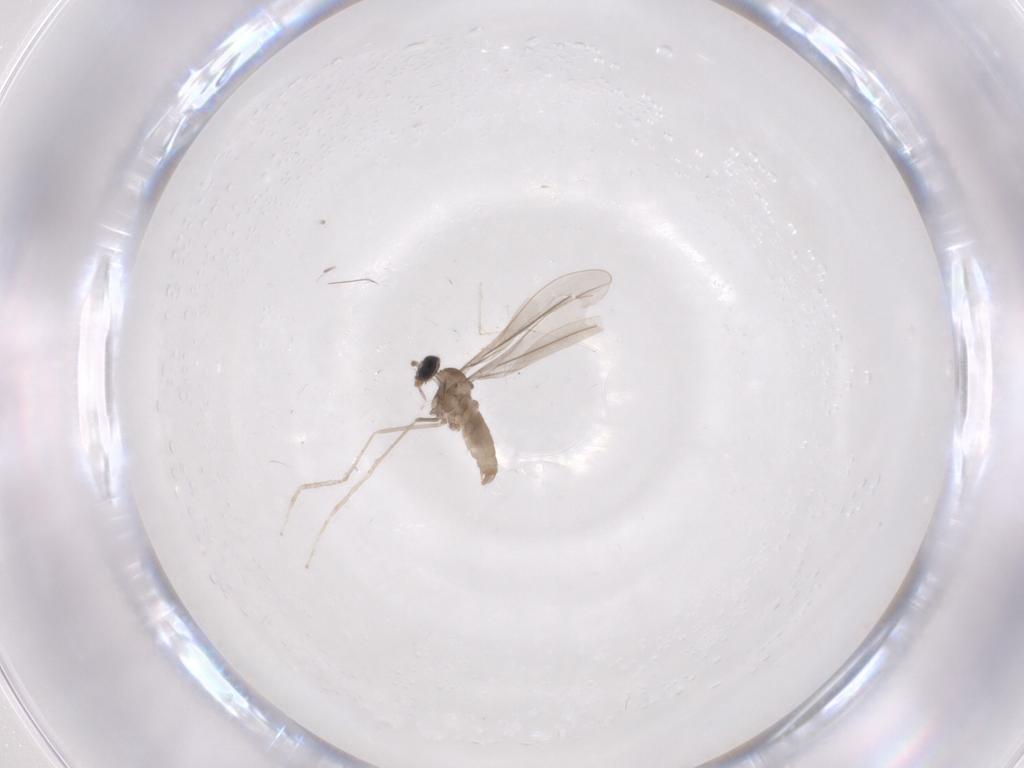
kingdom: Animalia
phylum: Arthropoda
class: Insecta
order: Diptera
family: Cecidomyiidae
